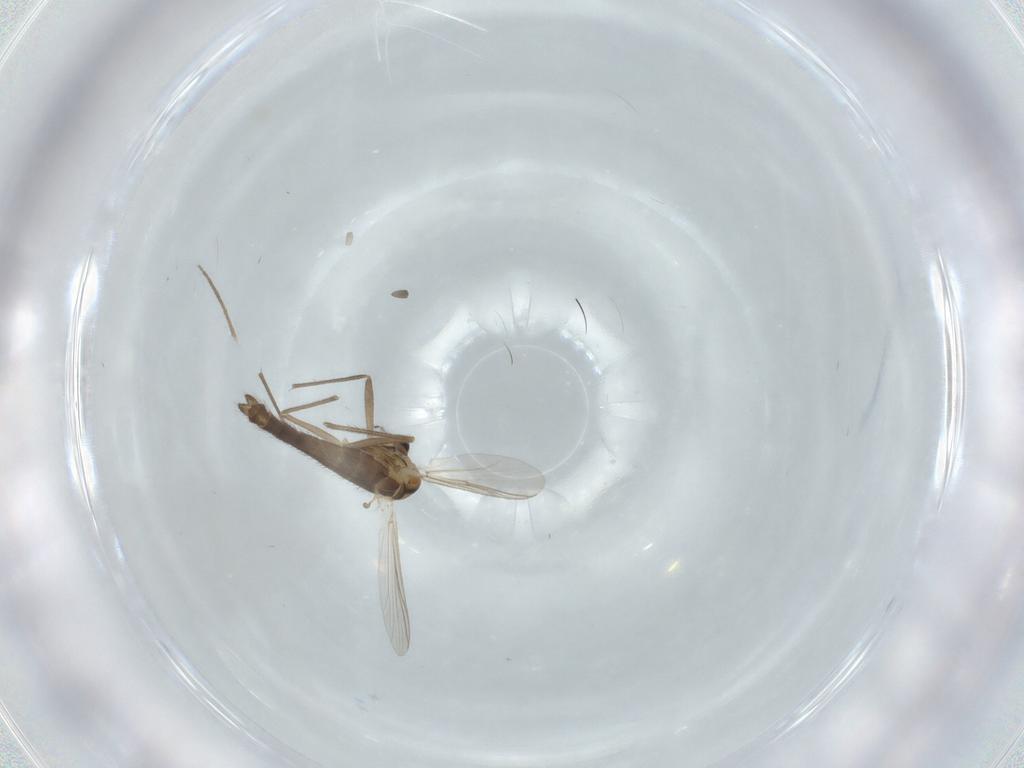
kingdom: Animalia
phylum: Arthropoda
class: Insecta
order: Diptera
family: Chironomidae
